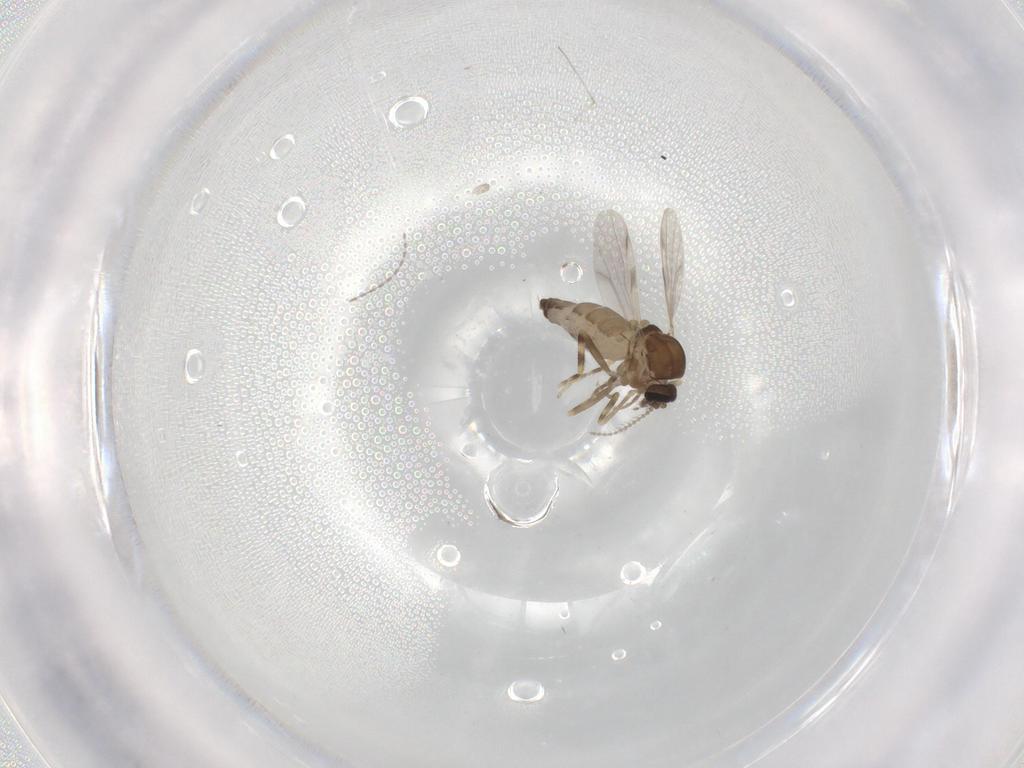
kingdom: Animalia
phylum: Arthropoda
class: Insecta
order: Diptera
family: Ceratopogonidae
